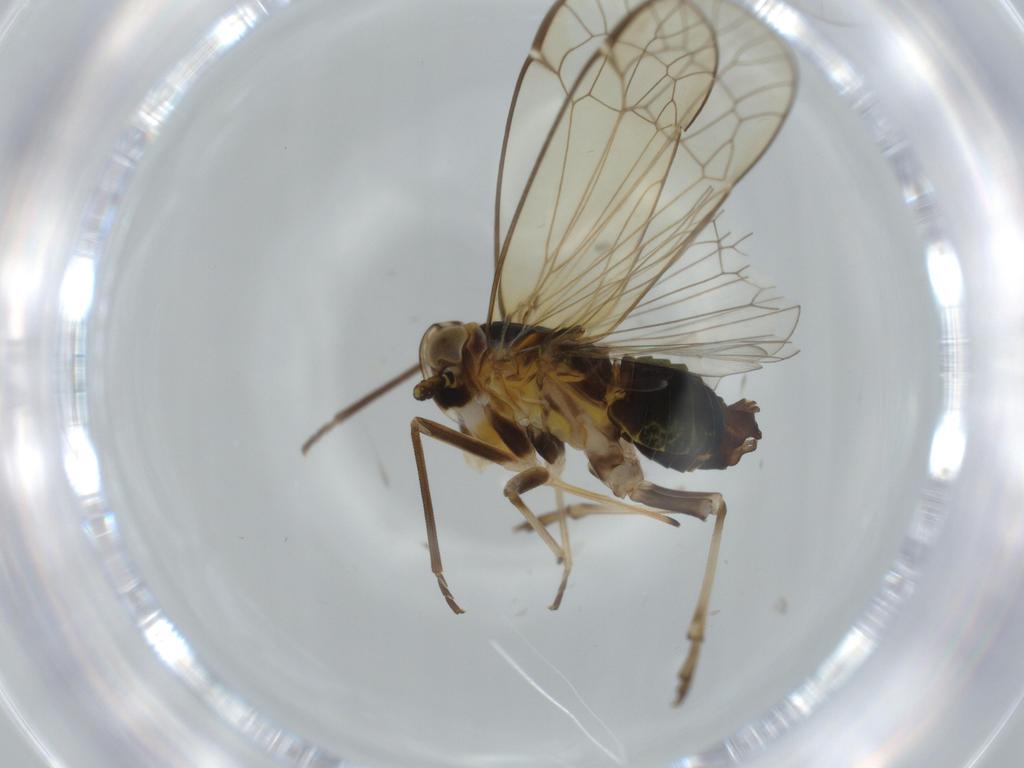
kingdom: Animalia
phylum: Arthropoda
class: Insecta
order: Hemiptera
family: Kinnaridae
